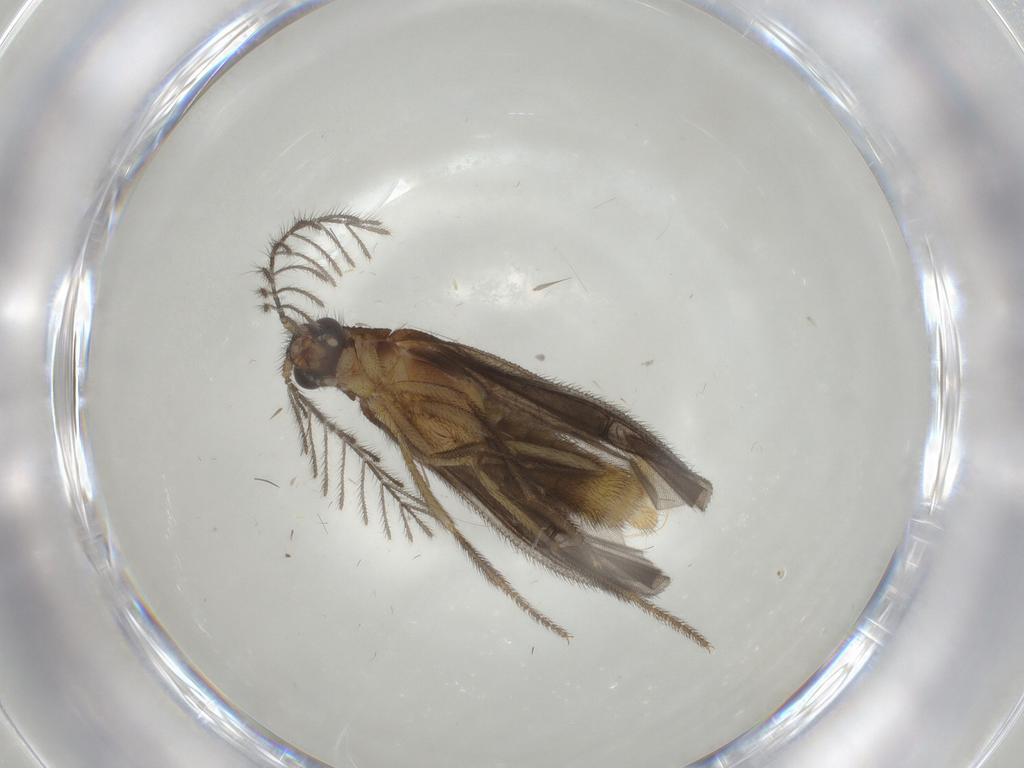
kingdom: Animalia
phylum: Arthropoda
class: Insecta
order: Coleoptera
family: Phengodidae
